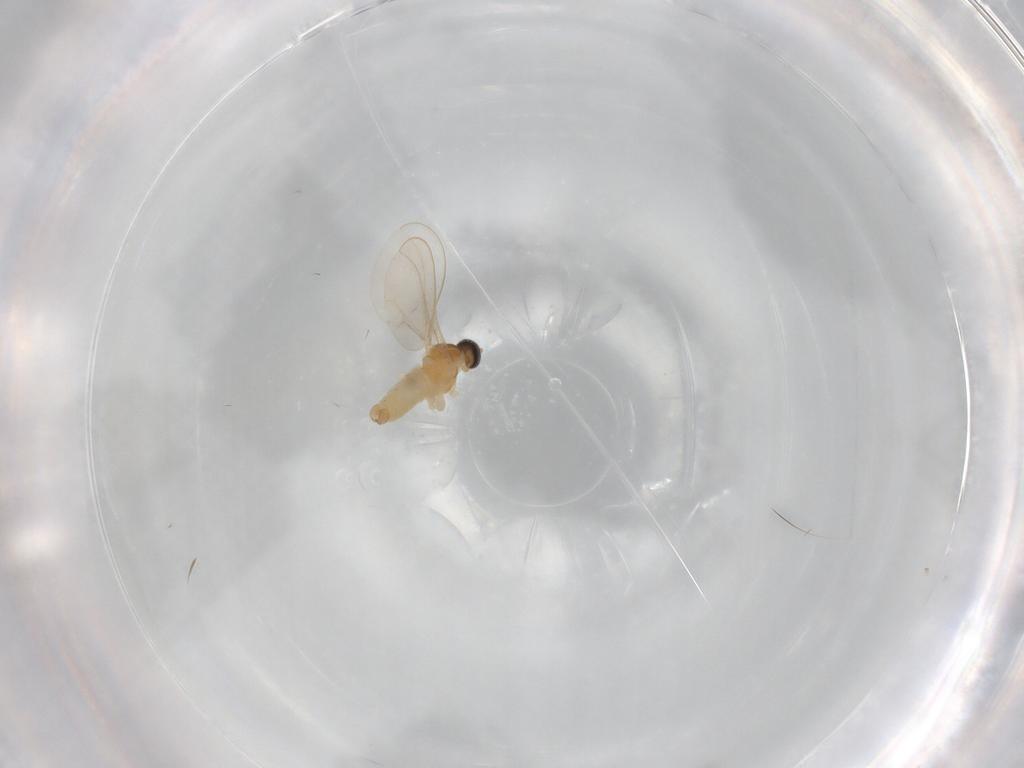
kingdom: Animalia
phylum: Arthropoda
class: Insecta
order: Diptera
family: Cecidomyiidae
